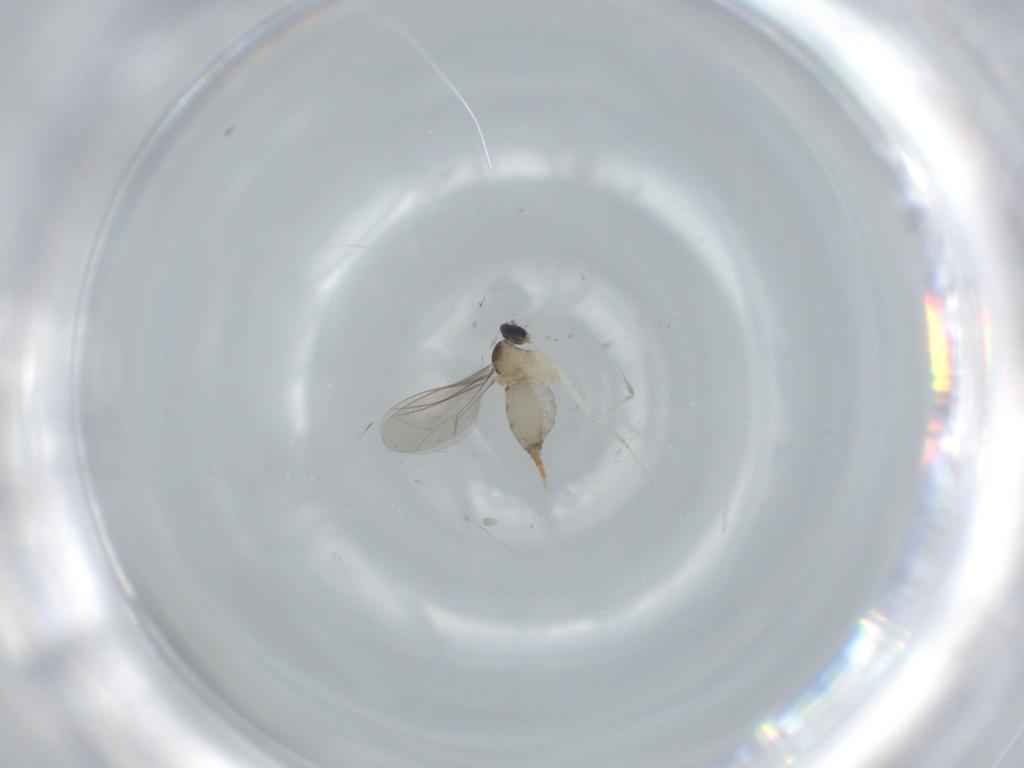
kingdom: Animalia
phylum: Arthropoda
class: Insecta
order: Diptera
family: Cecidomyiidae
